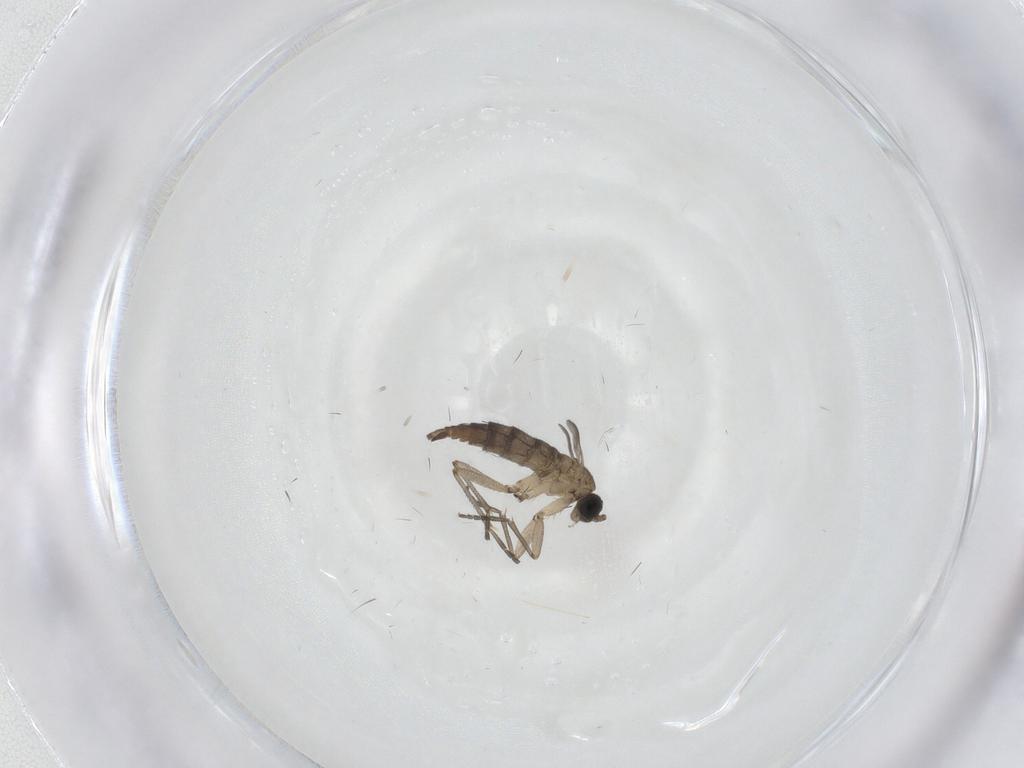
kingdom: Animalia
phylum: Arthropoda
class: Insecta
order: Diptera
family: Sciaridae
